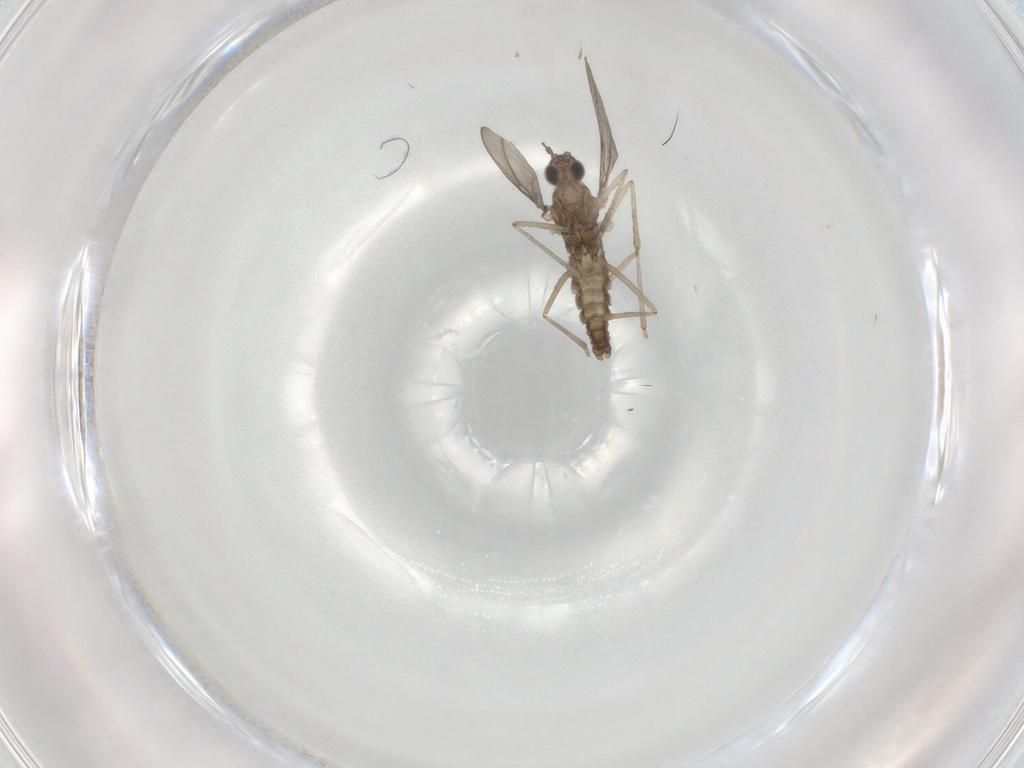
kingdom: Animalia
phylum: Arthropoda
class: Insecta
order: Diptera
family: Cecidomyiidae
